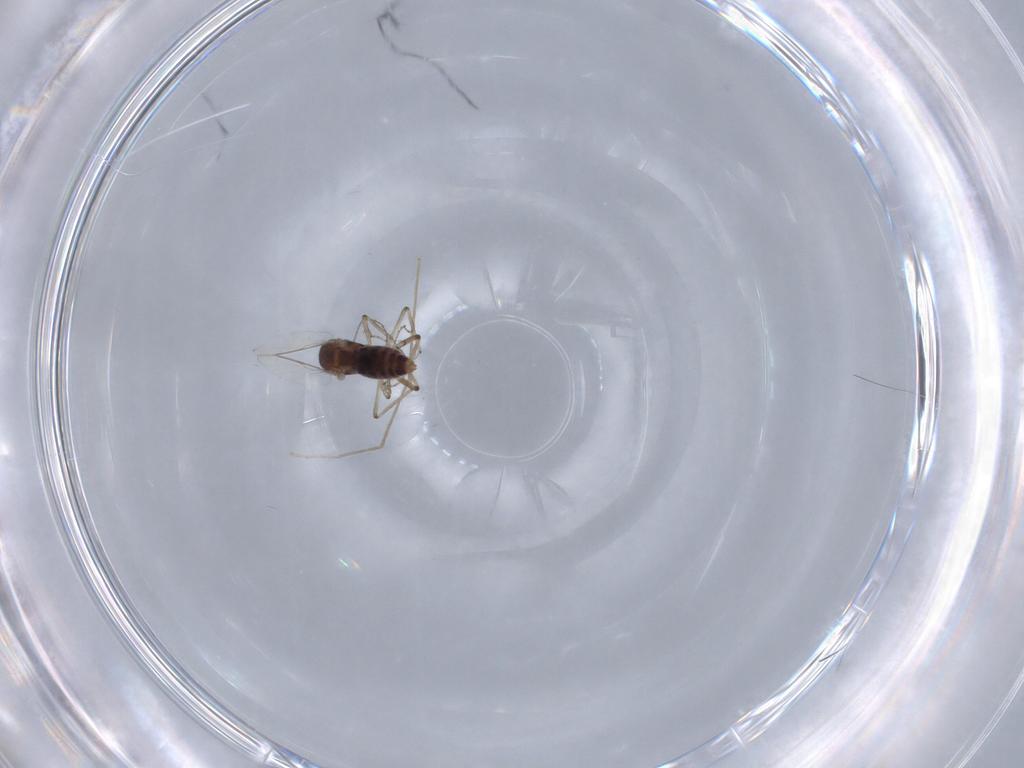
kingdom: Animalia
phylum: Arthropoda
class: Insecta
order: Diptera
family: Chironomidae
